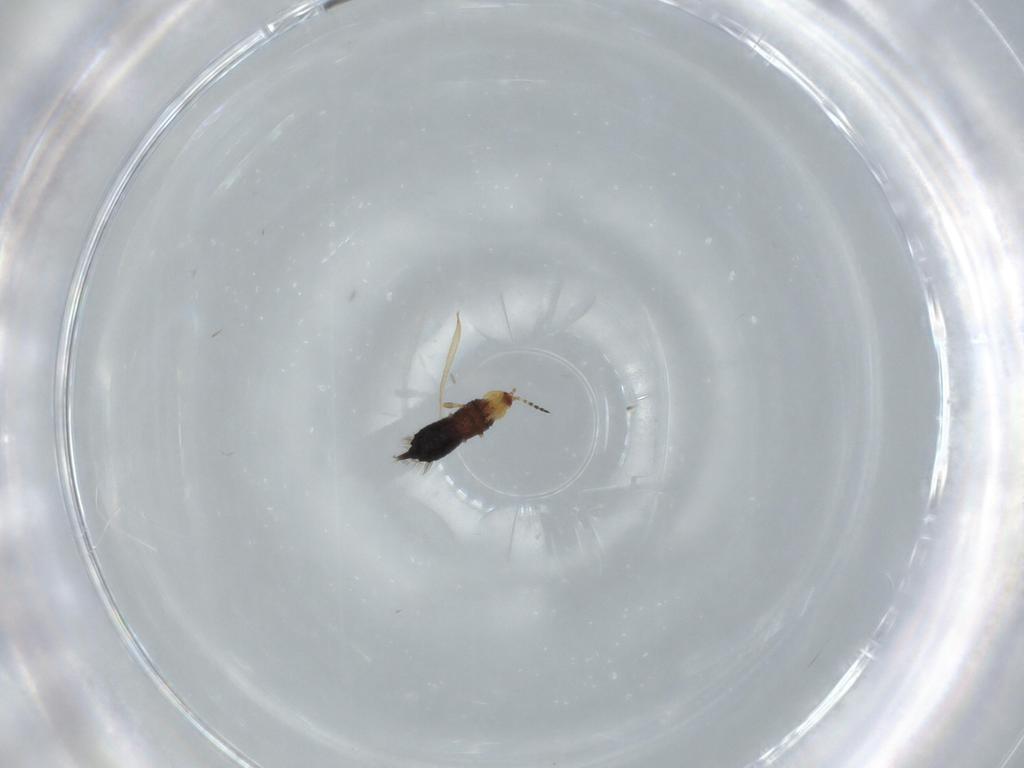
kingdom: Animalia
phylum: Arthropoda
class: Insecta
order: Thysanoptera
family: Phlaeothripidae
